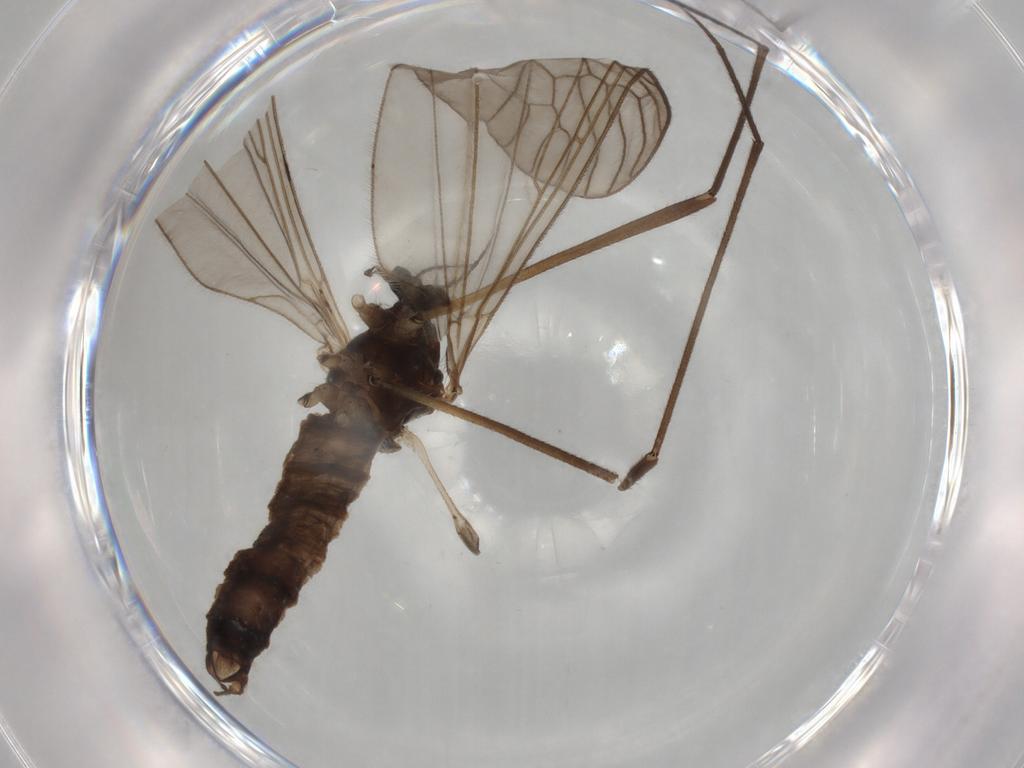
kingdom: Animalia
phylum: Arthropoda
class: Insecta
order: Diptera
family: Trichoceridae
